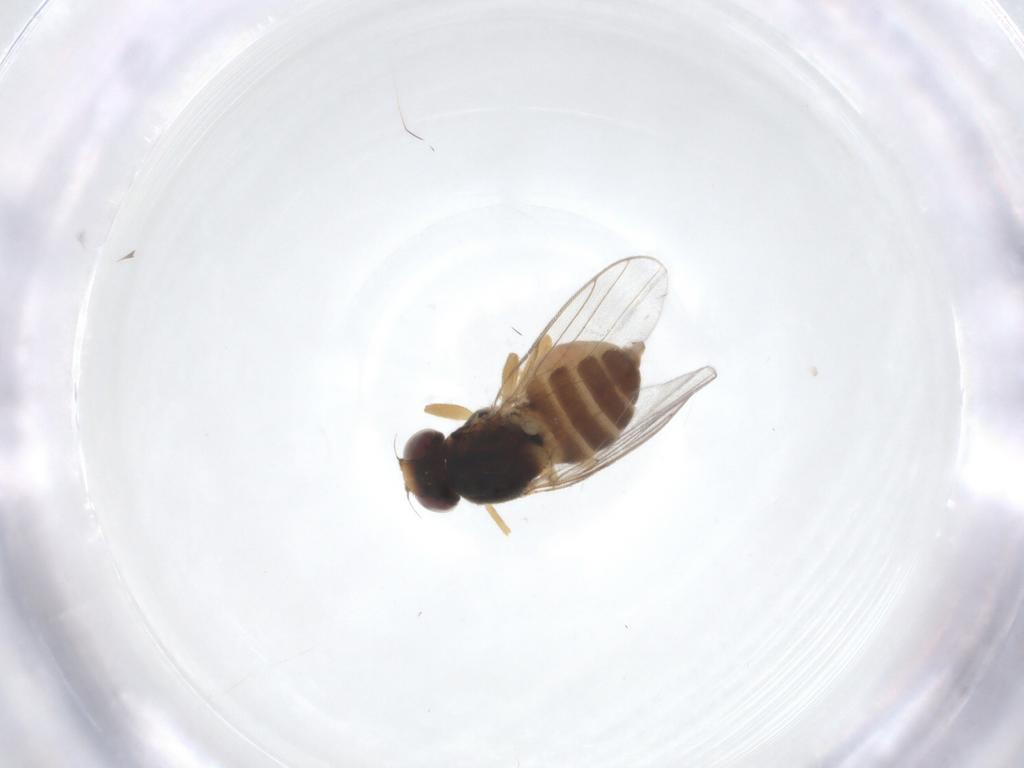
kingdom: Animalia
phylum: Arthropoda
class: Insecta
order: Diptera
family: Chloropidae
